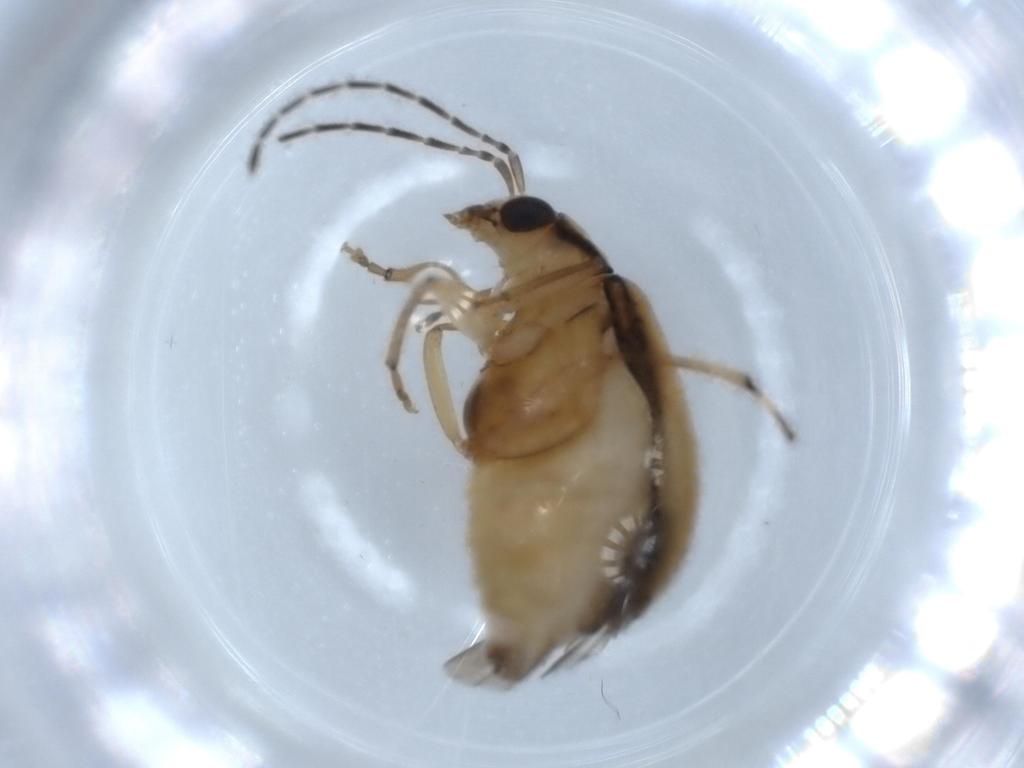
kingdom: Animalia
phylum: Arthropoda
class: Insecta
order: Coleoptera
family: Chrysomelidae
